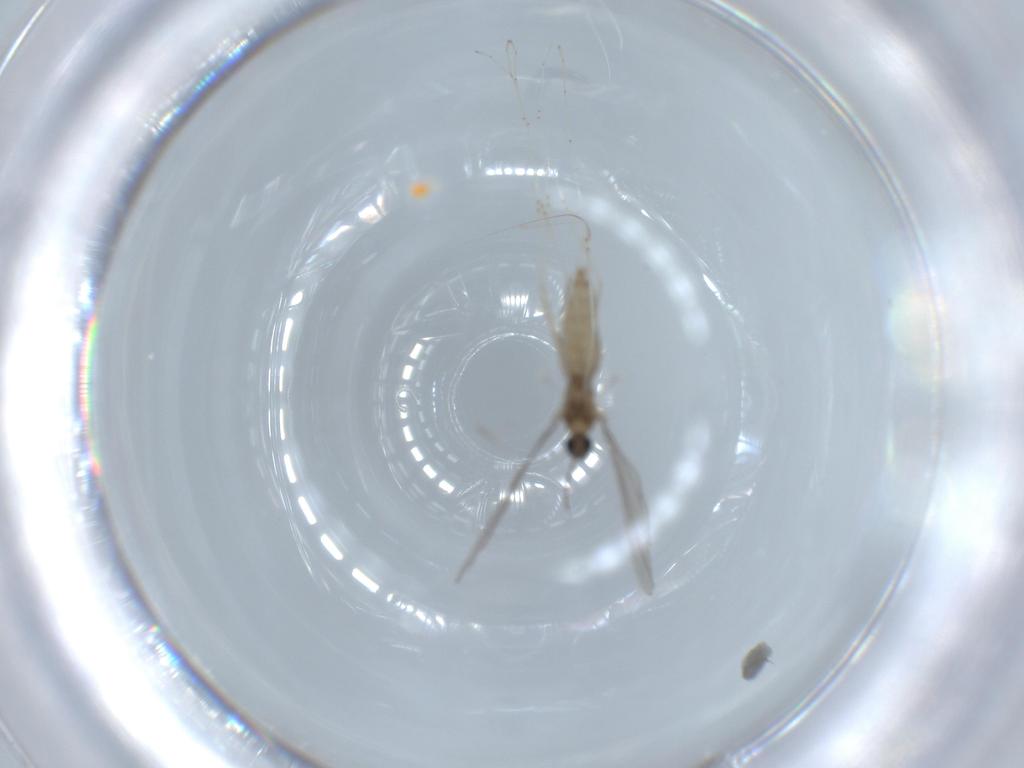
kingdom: Animalia
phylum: Arthropoda
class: Insecta
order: Diptera
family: Cecidomyiidae
